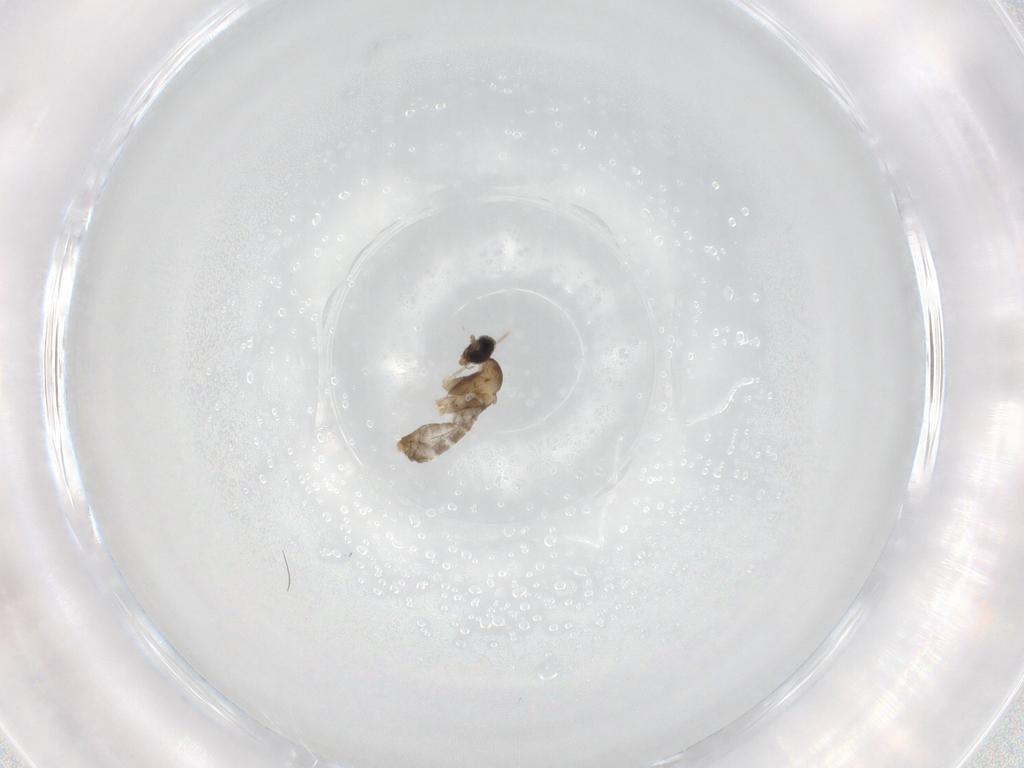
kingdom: Animalia
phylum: Arthropoda
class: Insecta
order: Diptera
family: Cecidomyiidae
